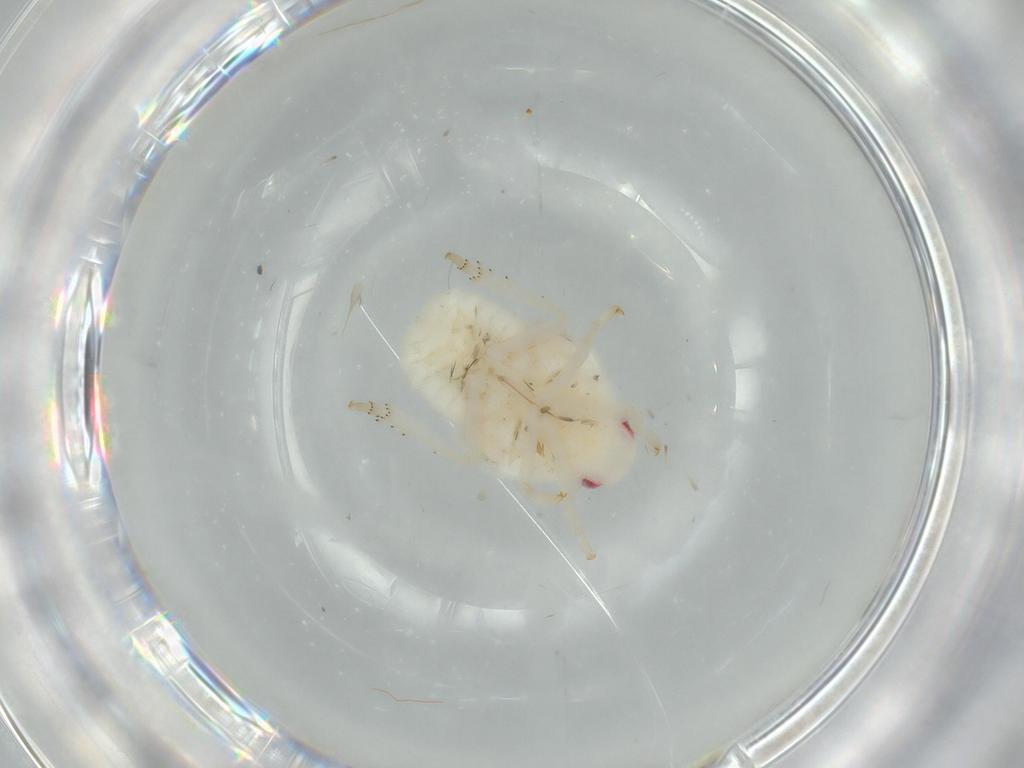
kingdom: Animalia
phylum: Arthropoda
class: Insecta
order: Hemiptera
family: Flatidae
